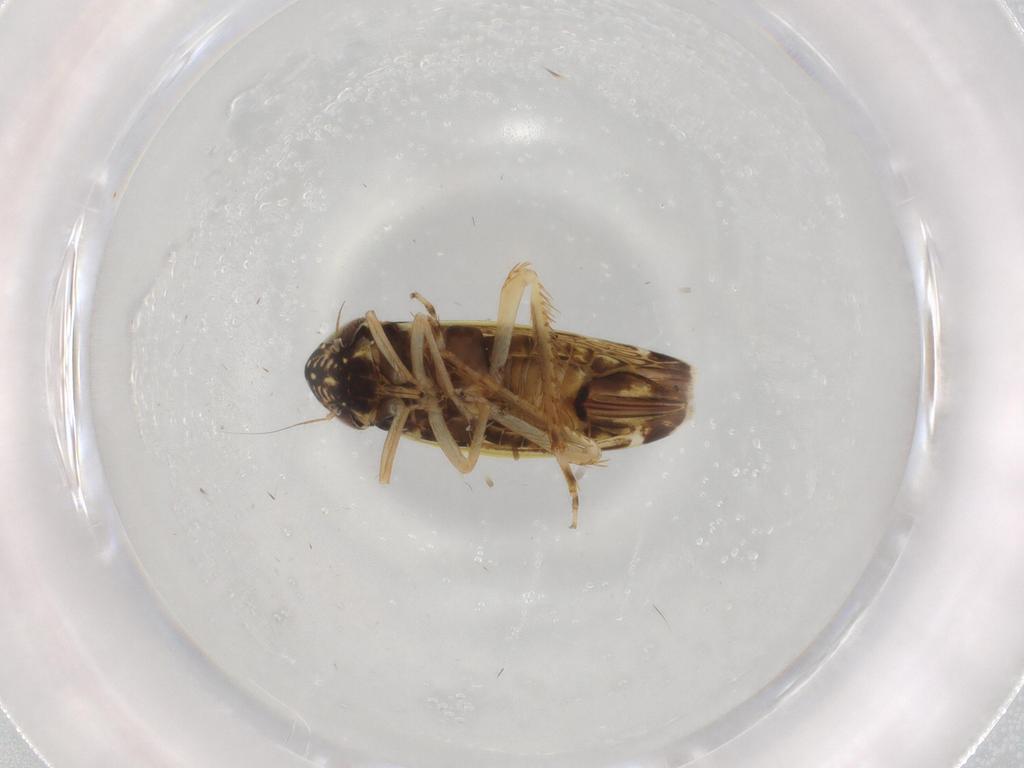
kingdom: Animalia
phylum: Arthropoda
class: Insecta
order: Hemiptera
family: Cicadellidae
